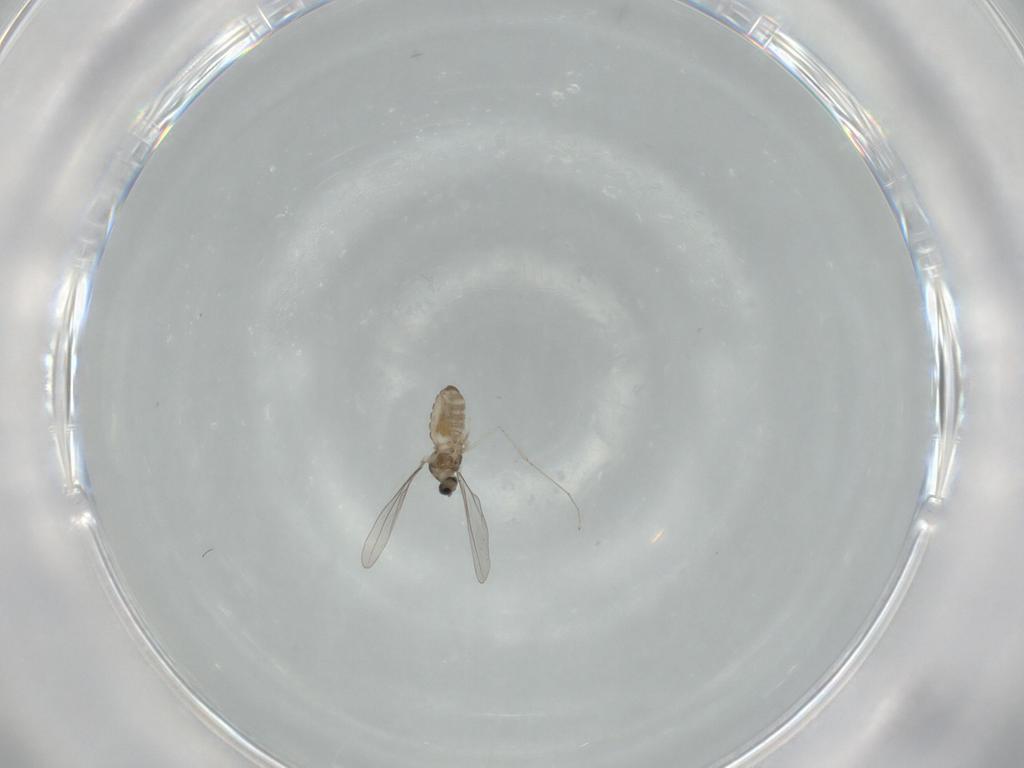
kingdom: Animalia
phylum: Arthropoda
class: Insecta
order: Diptera
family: Cecidomyiidae
